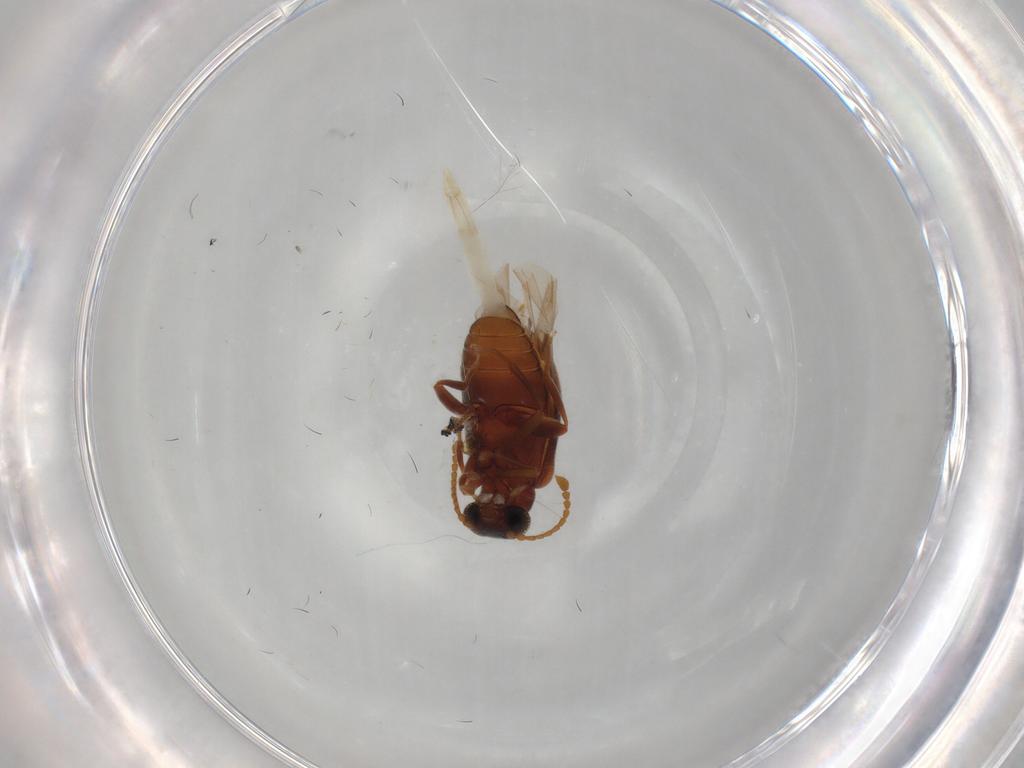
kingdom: Animalia
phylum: Arthropoda
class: Insecta
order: Coleoptera
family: Aderidae
